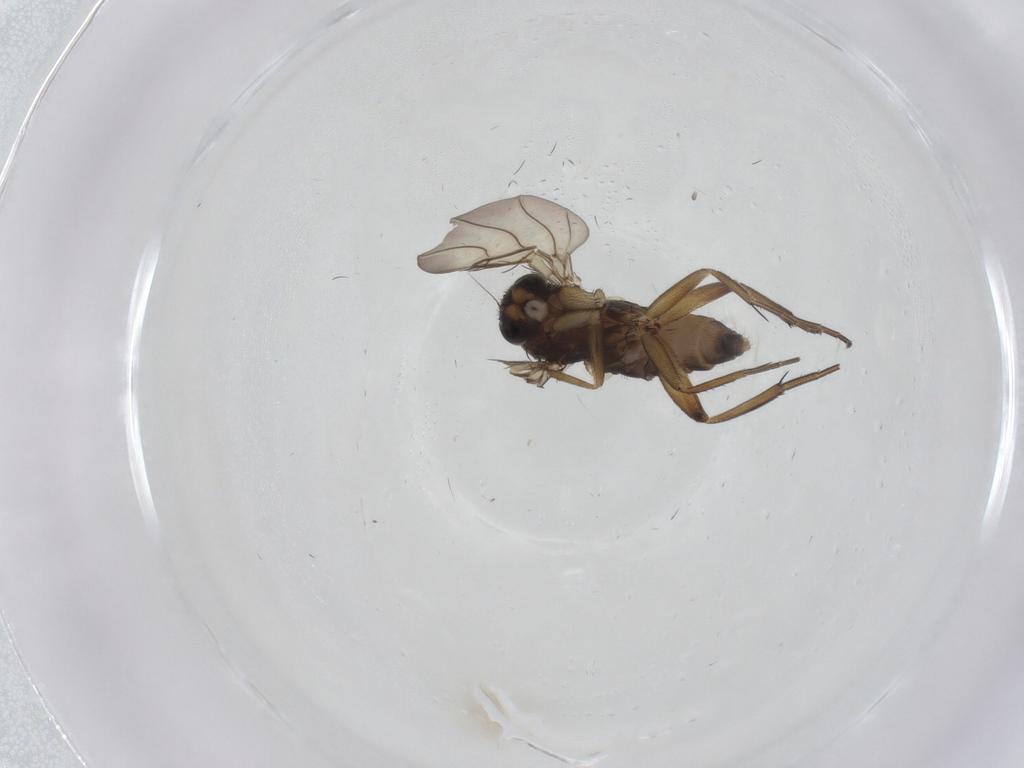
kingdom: Animalia
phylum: Arthropoda
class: Insecta
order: Diptera
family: Phoridae
